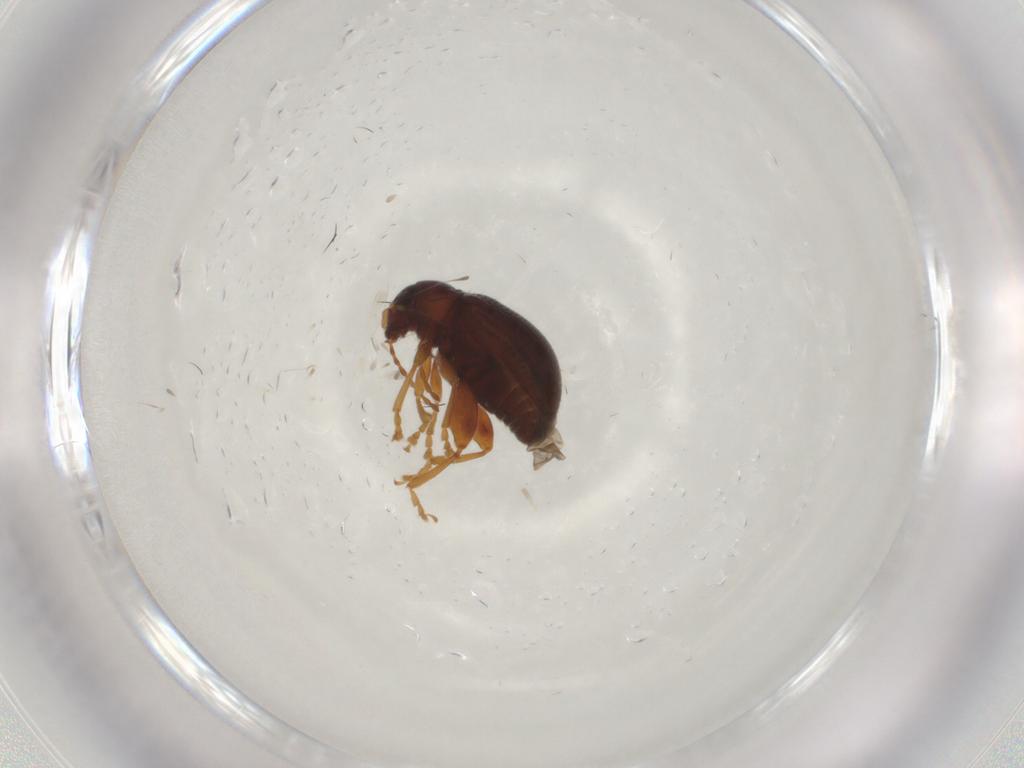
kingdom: Animalia
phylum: Arthropoda
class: Insecta
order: Coleoptera
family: Chrysomelidae
